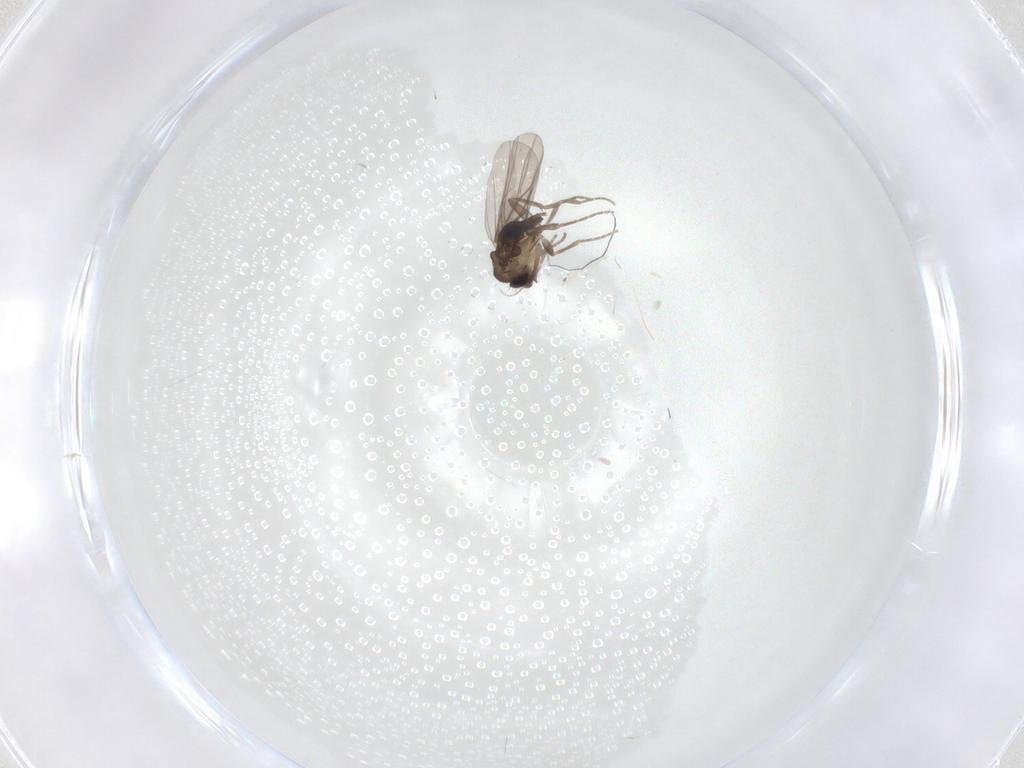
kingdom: Animalia
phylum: Arthropoda
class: Insecta
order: Diptera
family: Cecidomyiidae
